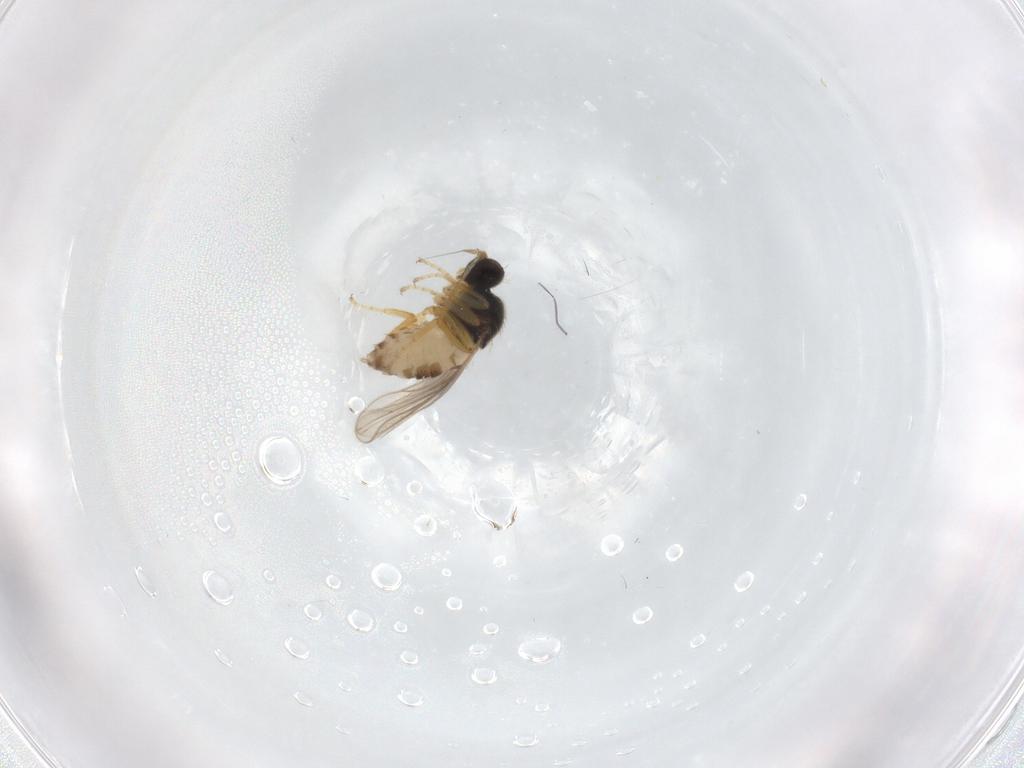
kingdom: Animalia
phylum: Arthropoda
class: Insecta
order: Diptera
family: Hybotidae
